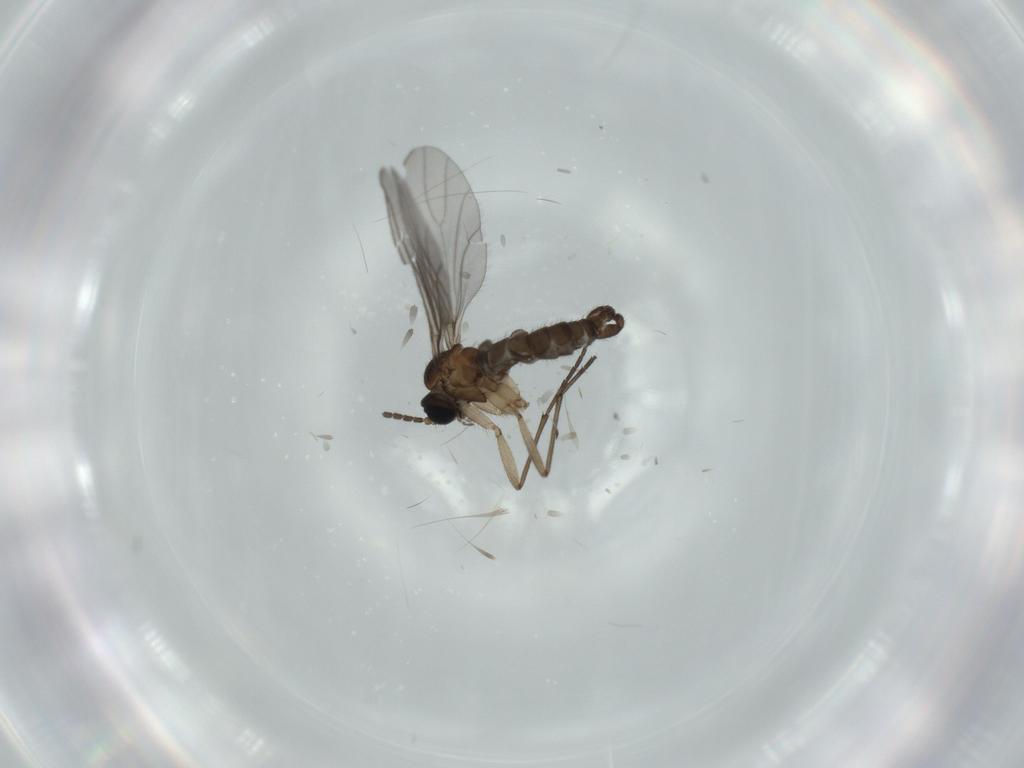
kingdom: Animalia
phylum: Arthropoda
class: Insecta
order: Diptera
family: Sciaridae
